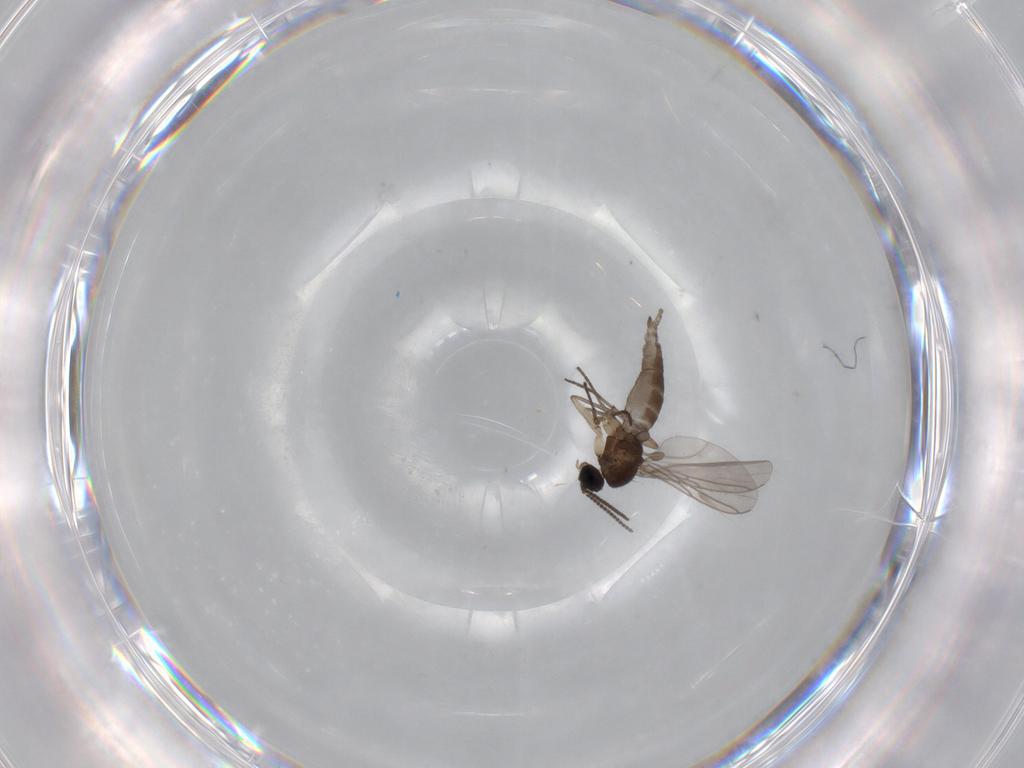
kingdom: Animalia
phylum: Arthropoda
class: Insecta
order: Diptera
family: Sciaridae
